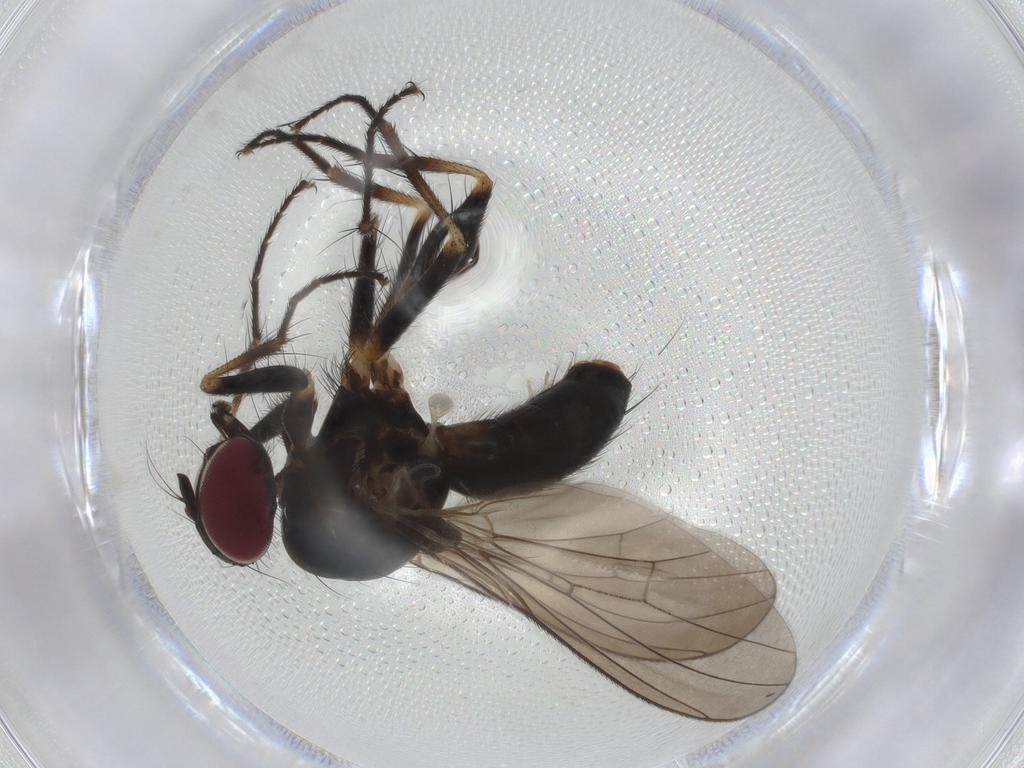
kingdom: Animalia
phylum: Arthropoda
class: Insecta
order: Diptera
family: Anthomyiidae
